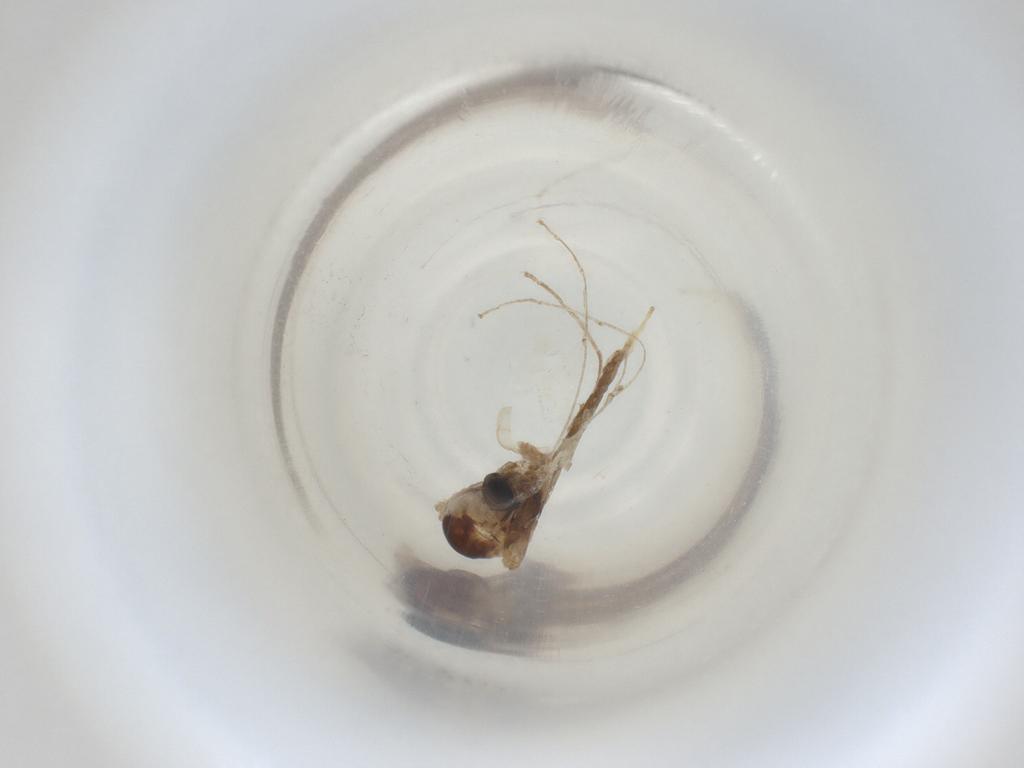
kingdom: Animalia
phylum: Arthropoda
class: Insecta
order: Diptera
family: Cecidomyiidae
